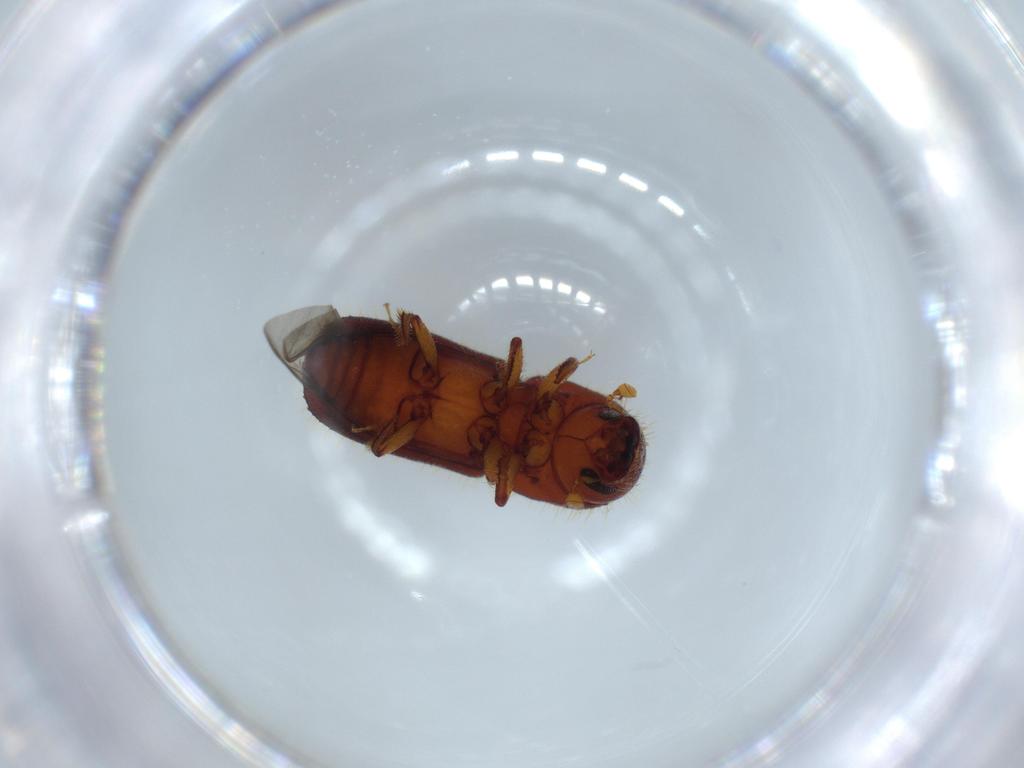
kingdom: Animalia
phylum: Arthropoda
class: Insecta
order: Coleoptera
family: Curculionidae
